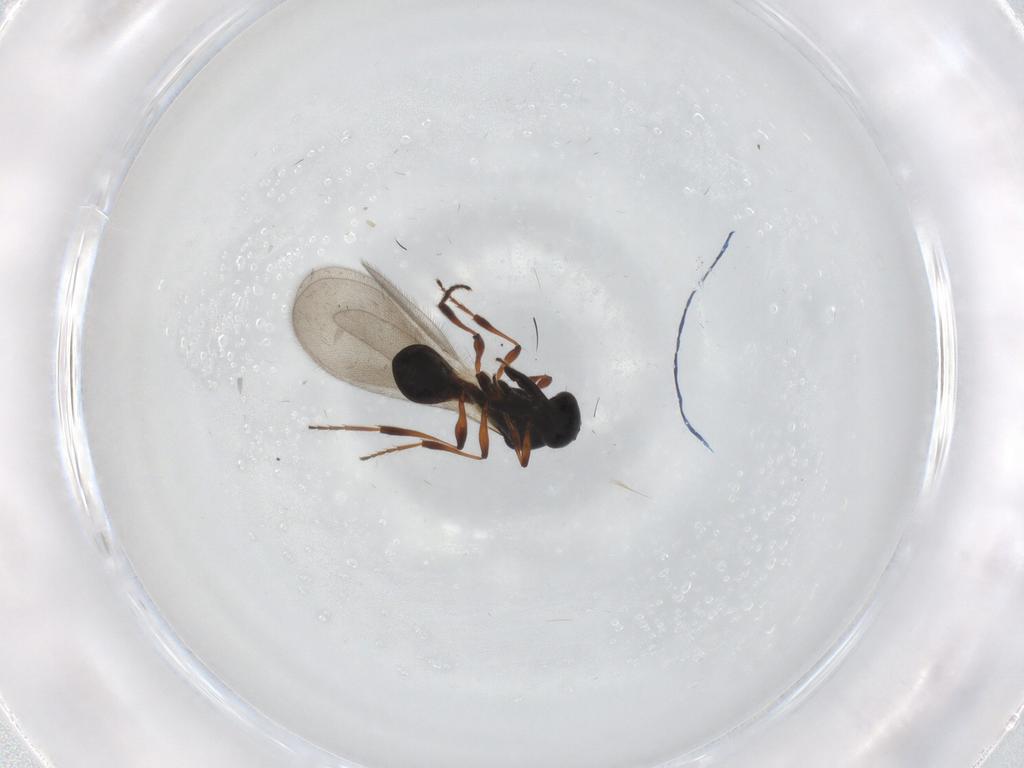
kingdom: Animalia
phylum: Arthropoda
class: Insecta
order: Hymenoptera
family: Platygastridae
